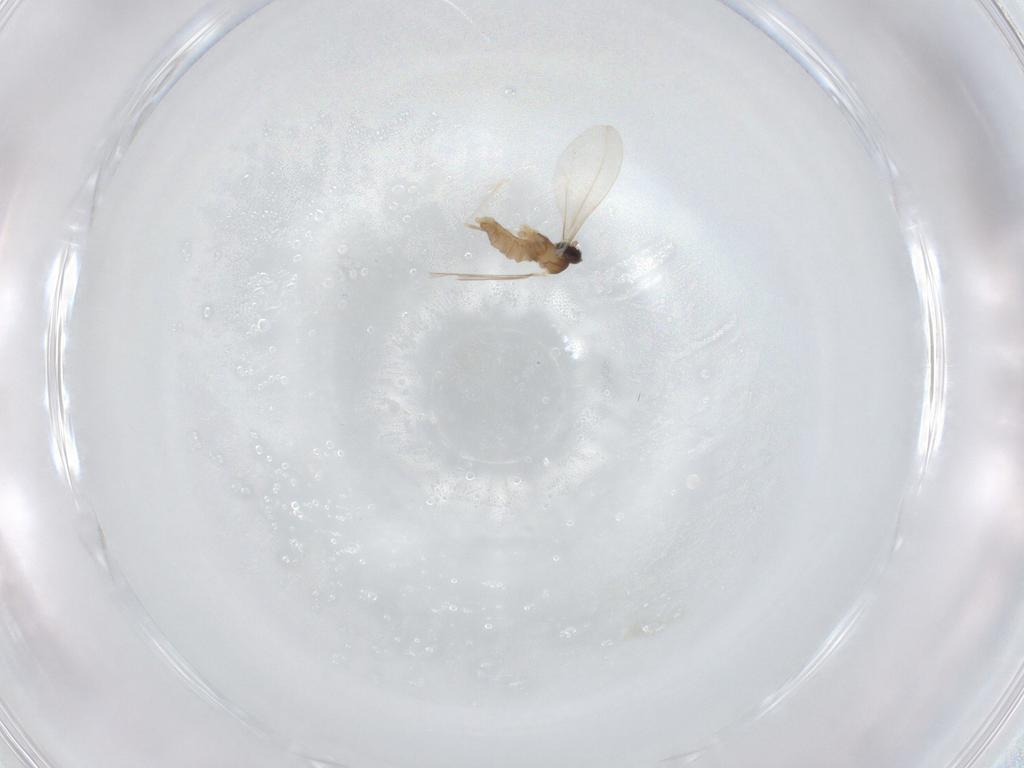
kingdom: Animalia
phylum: Arthropoda
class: Insecta
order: Diptera
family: Cecidomyiidae
